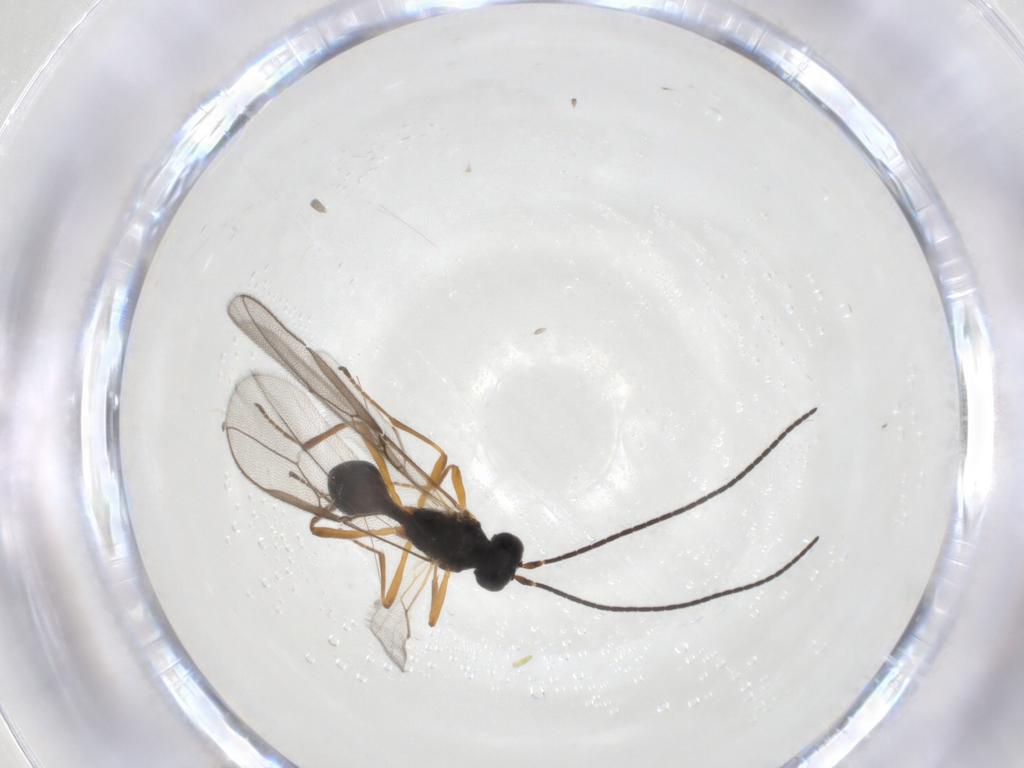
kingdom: Animalia
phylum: Arthropoda
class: Insecta
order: Hymenoptera
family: Braconidae
